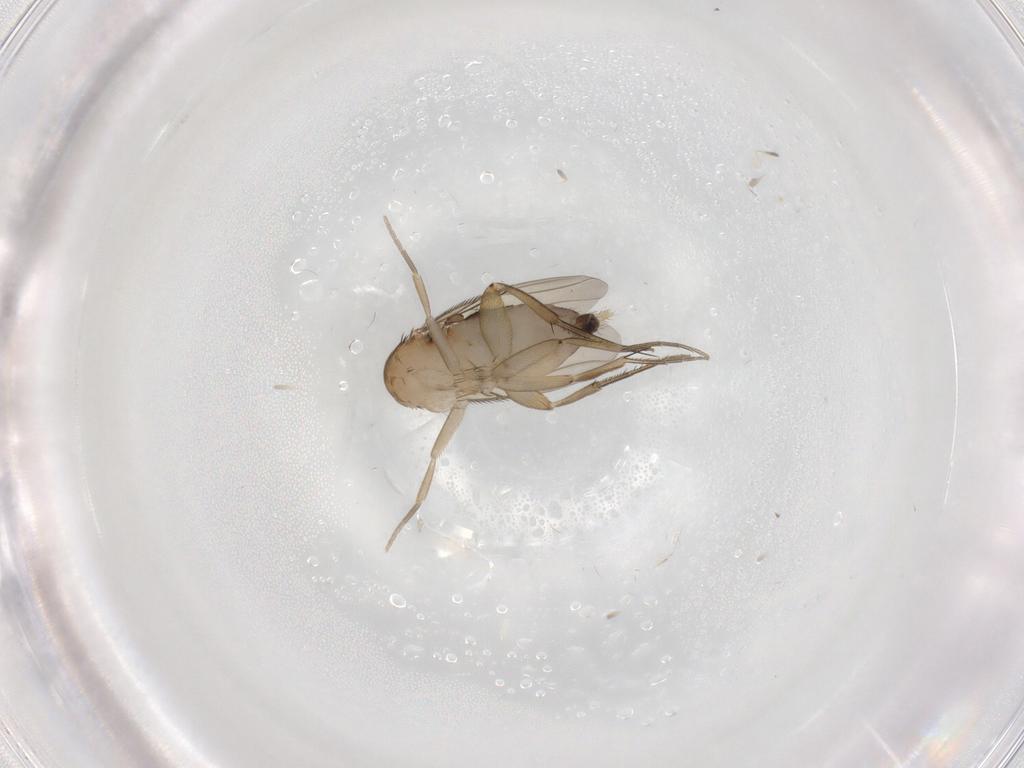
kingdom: Animalia
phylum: Arthropoda
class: Insecta
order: Diptera
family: Phoridae
